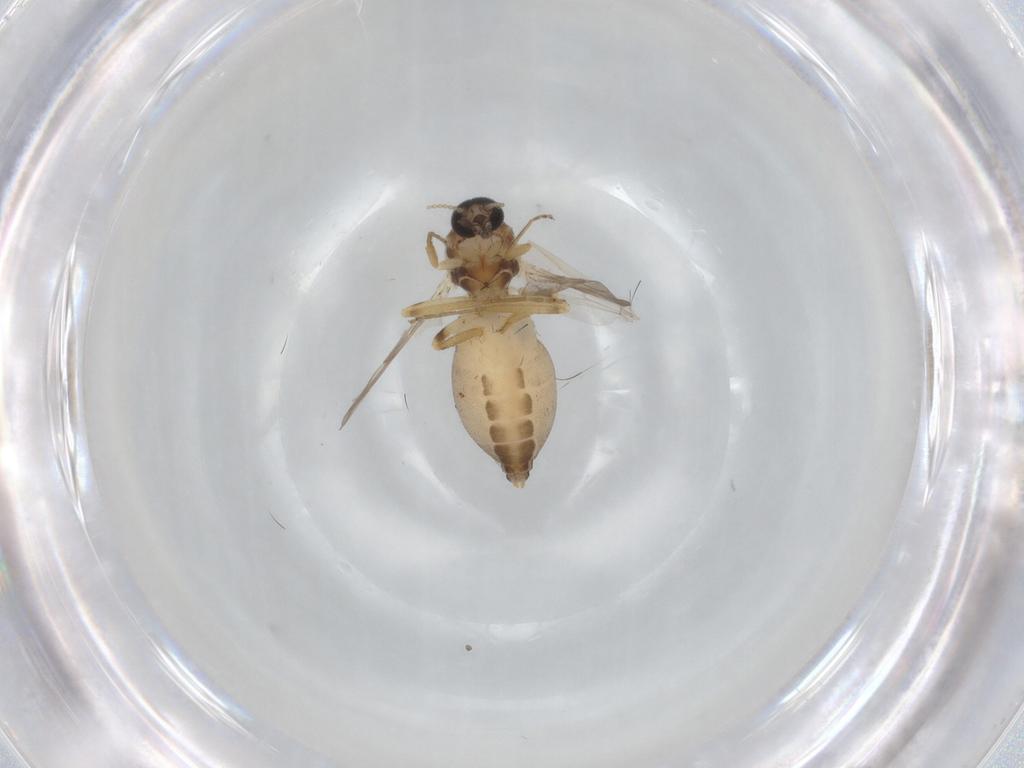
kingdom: Animalia
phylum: Arthropoda
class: Insecta
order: Diptera
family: Ceratopogonidae
